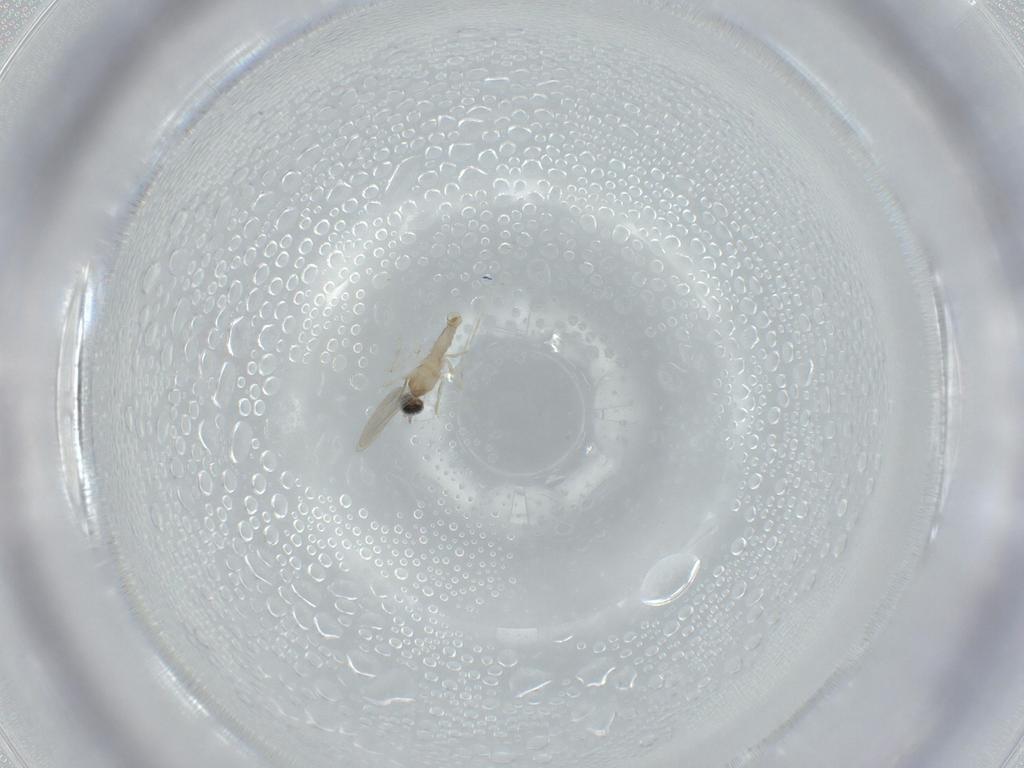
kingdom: Animalia
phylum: Arthropoda
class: Insecta
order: Diptera
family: Cecidomyiidae
